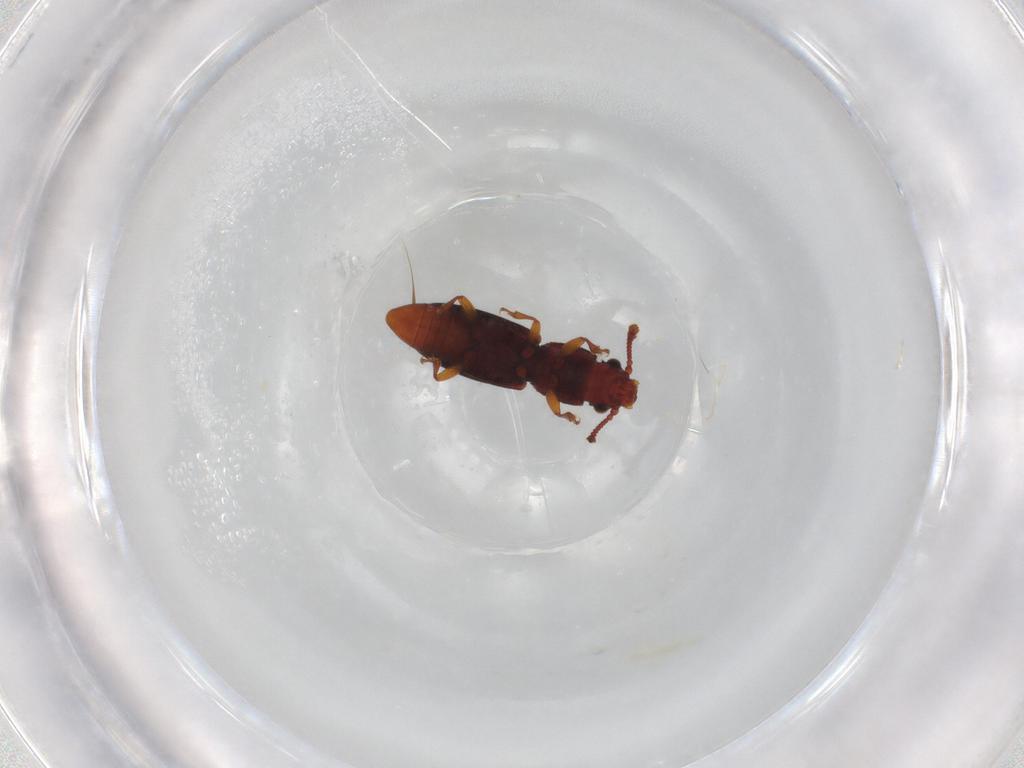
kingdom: Animalia
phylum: Arthropoda
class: Insecta
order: Coleoptera
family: Monotomidae
